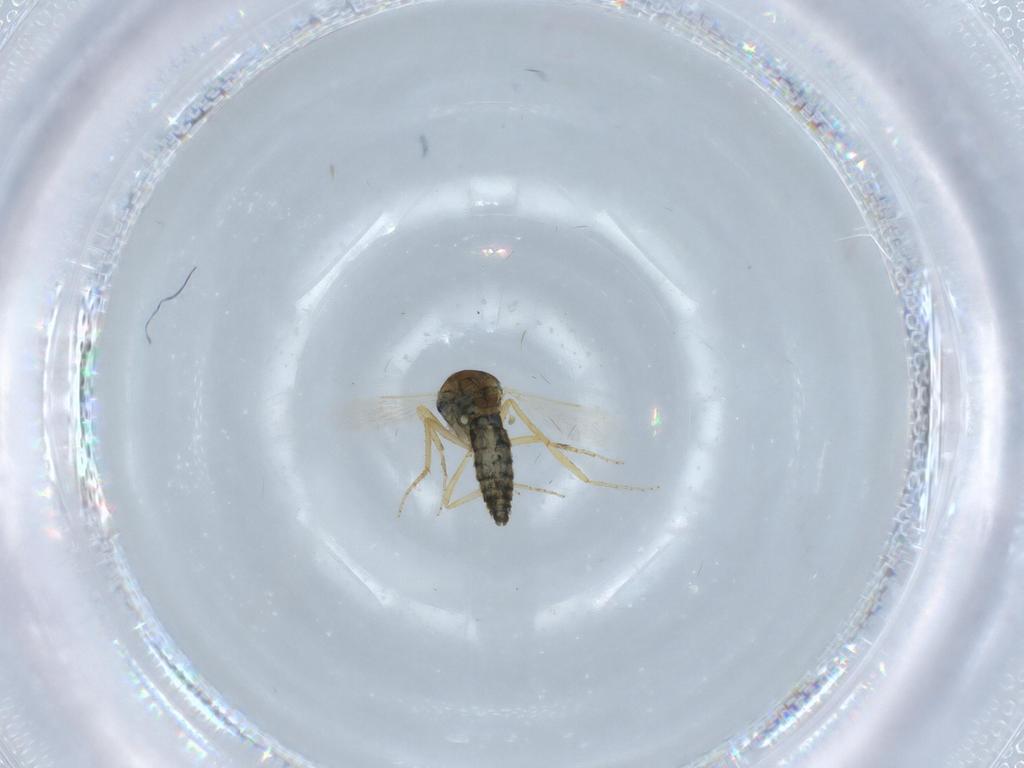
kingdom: Animalia
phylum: Arthropoda
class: Insecta
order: Diptera
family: Ceratopogonidae
